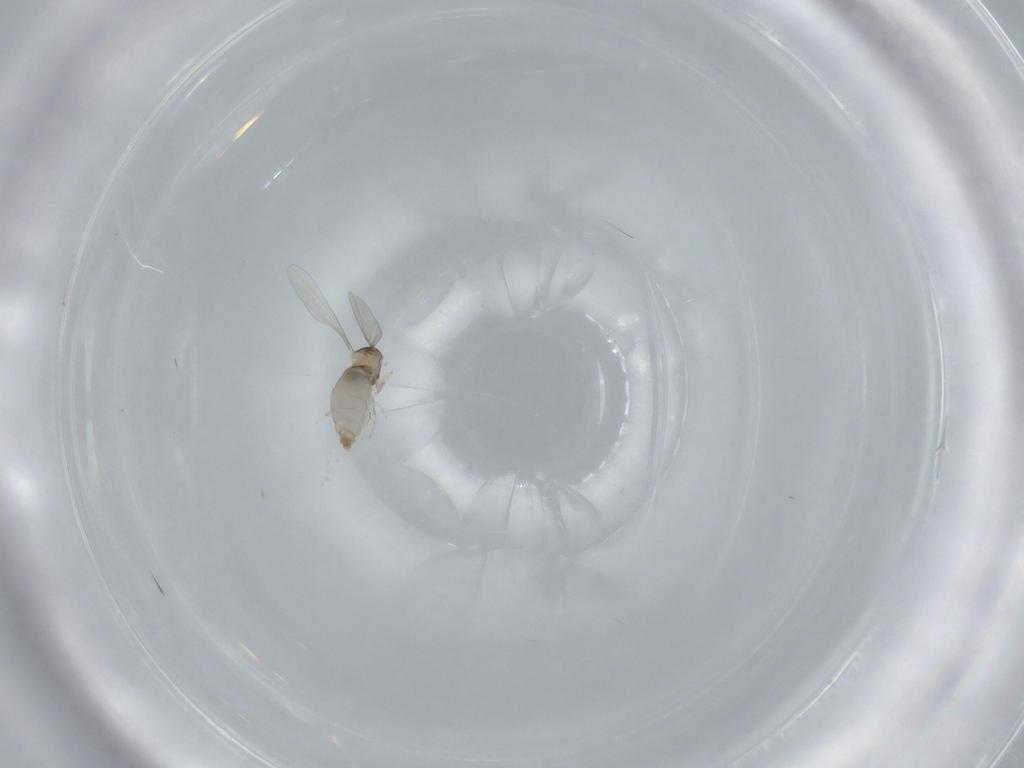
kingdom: Animalia
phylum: Arthropoda
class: Insecta
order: Diptera
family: Cecidomyiidae
